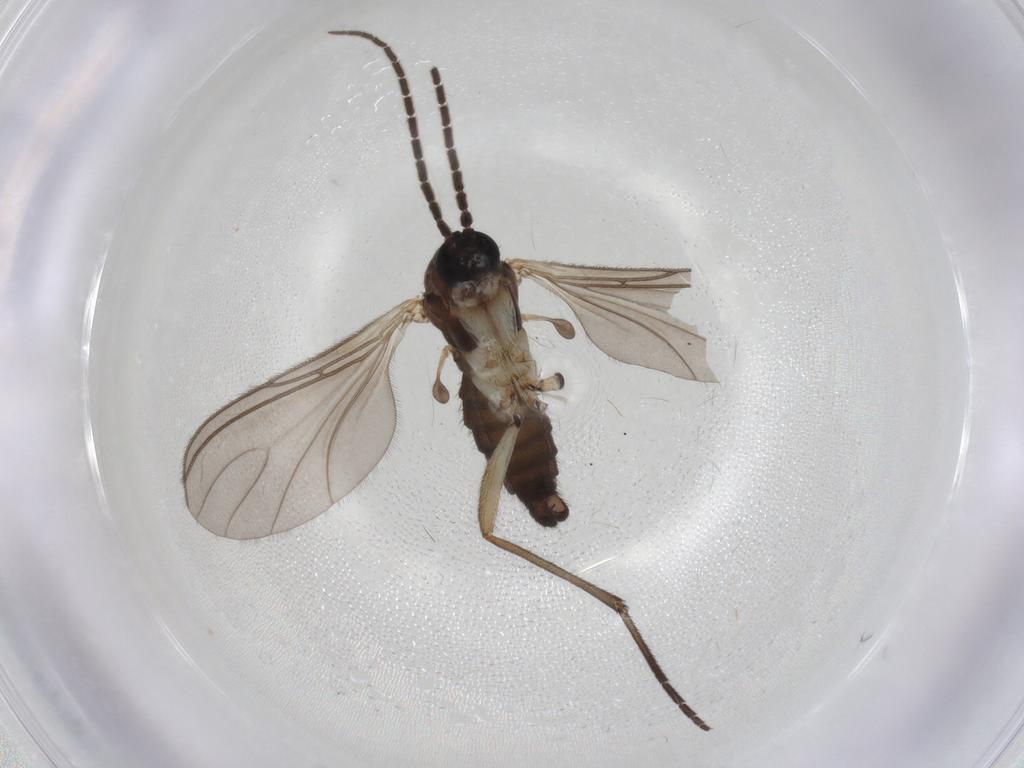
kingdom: Animalia
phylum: Arthropoda
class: Insecta
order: Diptera
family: Sciaridae
